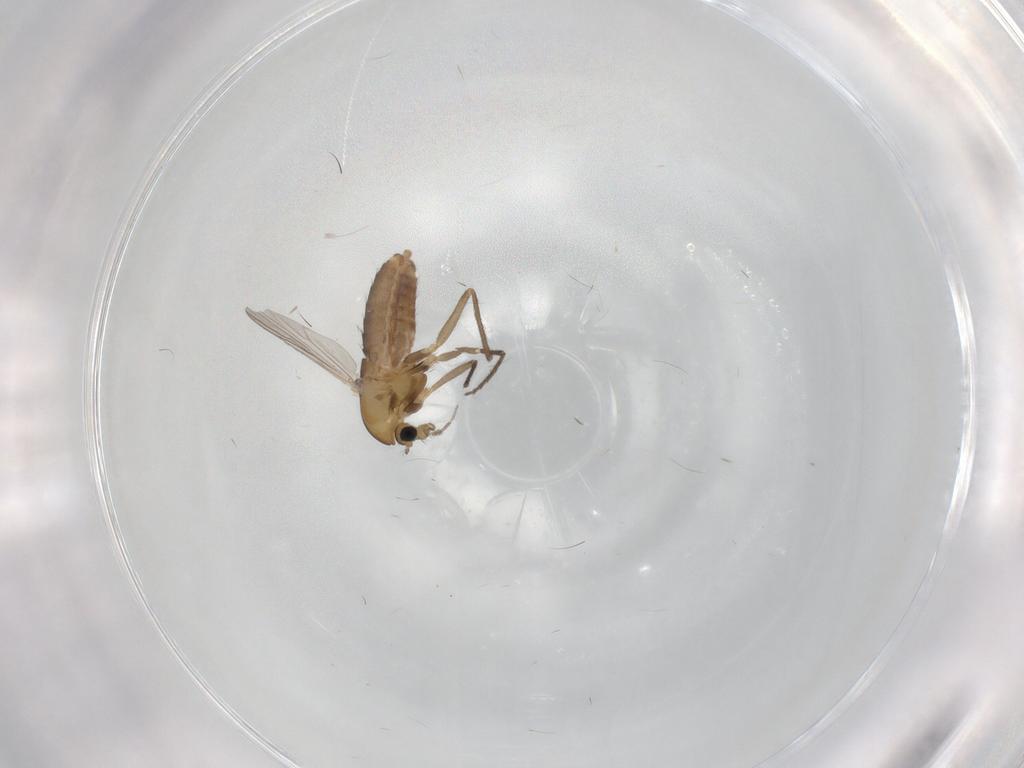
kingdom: Animalia
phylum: Arthropoda
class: Insecta
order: Diptera
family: Chironomidae
